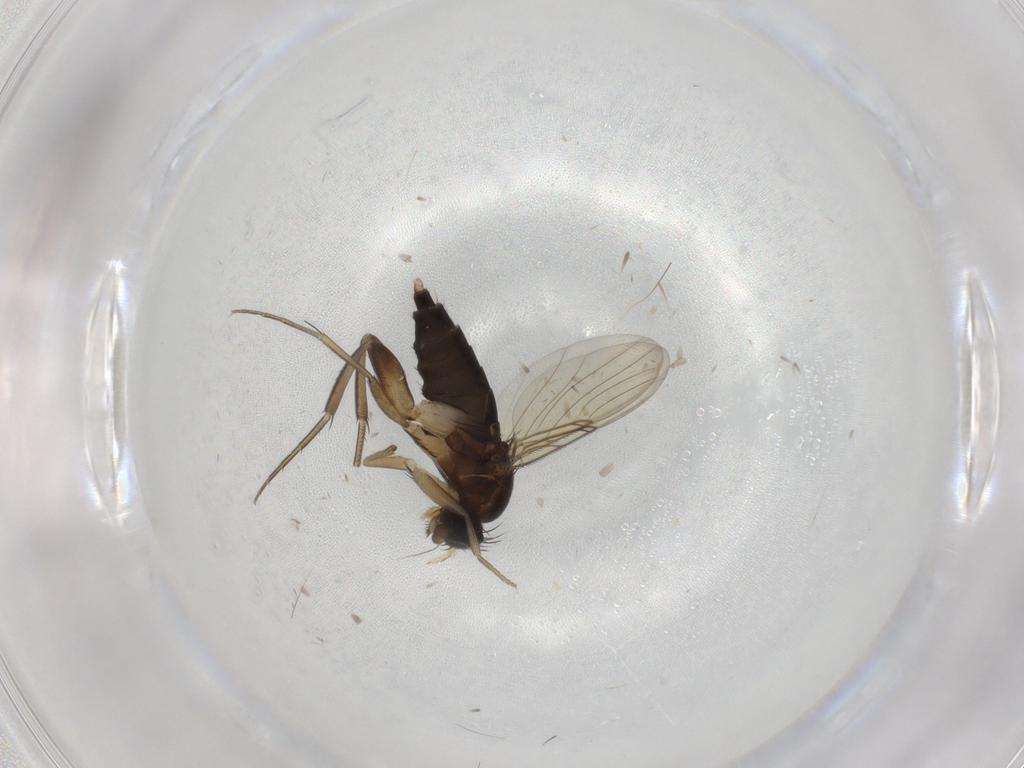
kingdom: Animalia
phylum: Arthropoda
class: Insecta
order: Diptera
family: Phoridae
